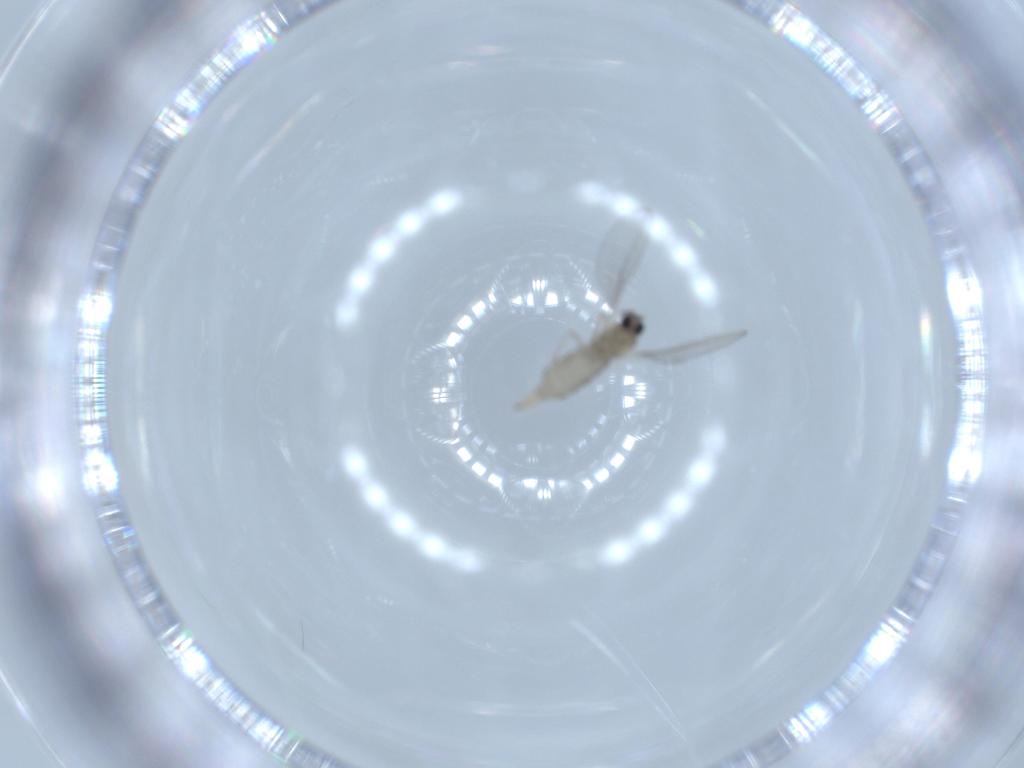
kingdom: Animalia
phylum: Arthropoda
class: Insecta
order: Diptera
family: Cecidomyiidae
